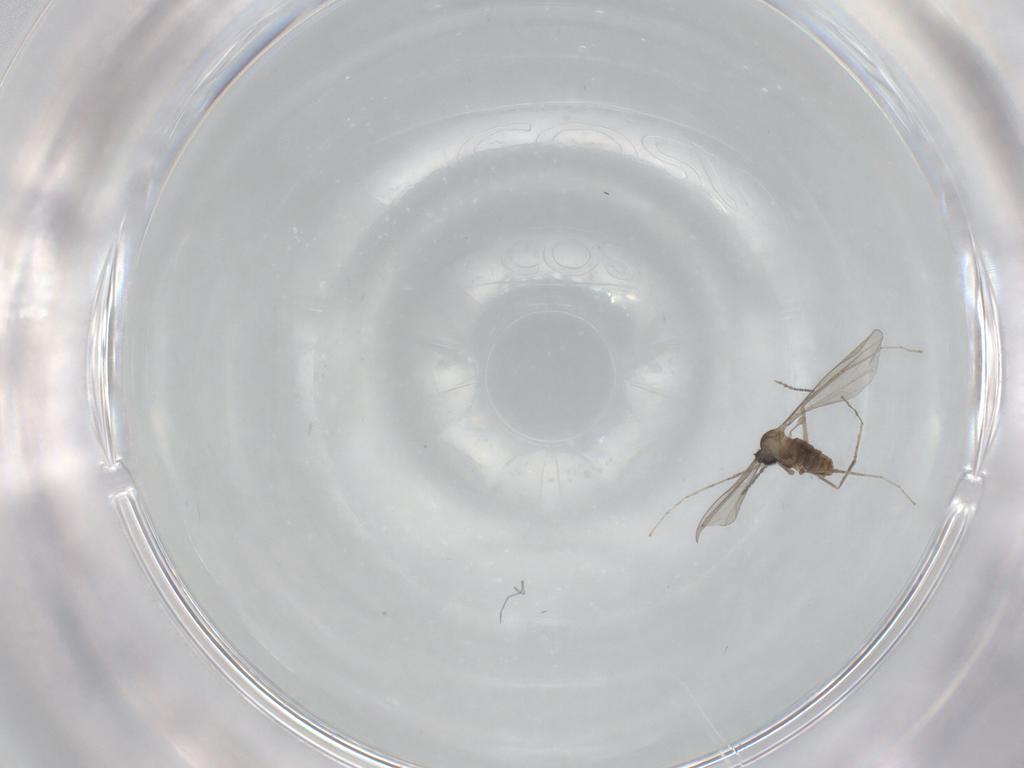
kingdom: Animalia
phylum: Arthropoda
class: Insecta
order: Diptera
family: Cecidomyiidae
